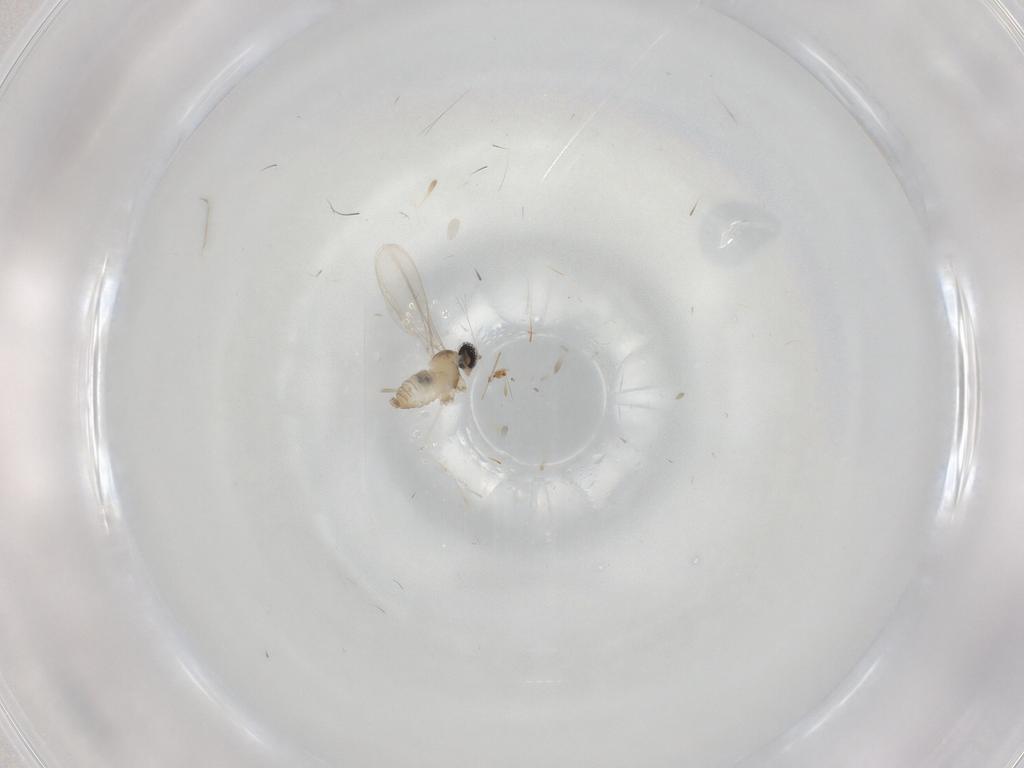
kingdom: Animalia
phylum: Arthropoda
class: Insecta
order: Diptera
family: Cecidomyiidae
